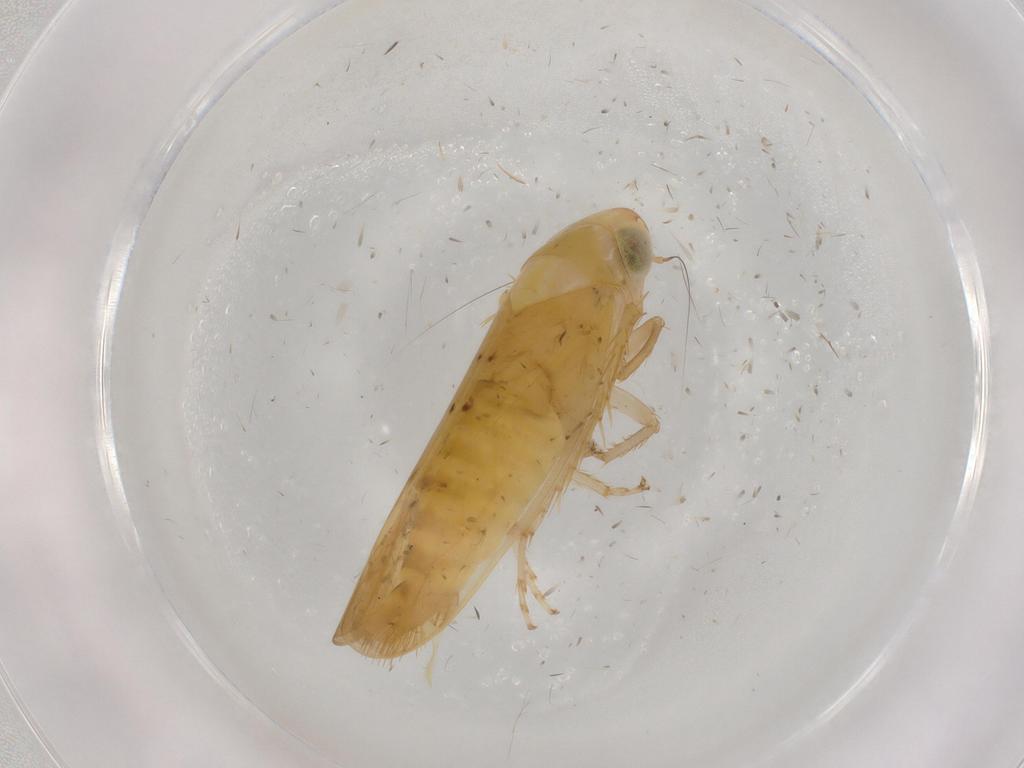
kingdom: Animalia
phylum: Arthropoda
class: Insecta
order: Hemiptera
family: Cicadellidae
